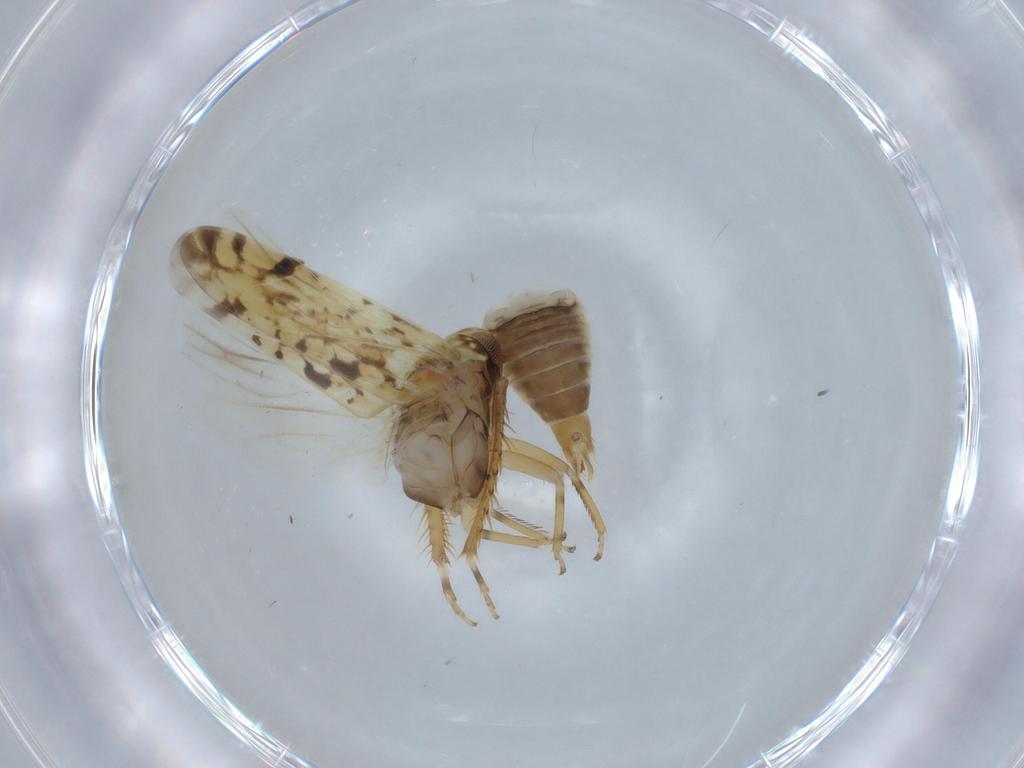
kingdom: Animalia
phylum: Arthropoda
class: Insecta
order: Hemiptera
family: Cicadellidae
